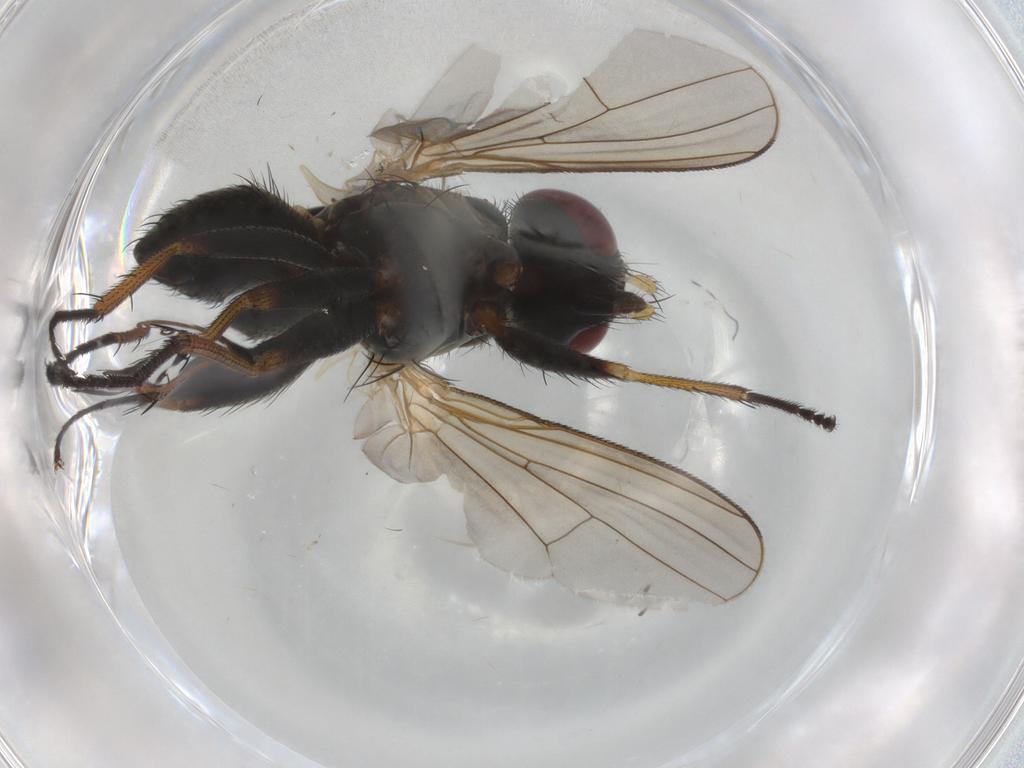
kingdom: Animalia
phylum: Arthropoda
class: Insecta
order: Diptera
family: Muscidae
